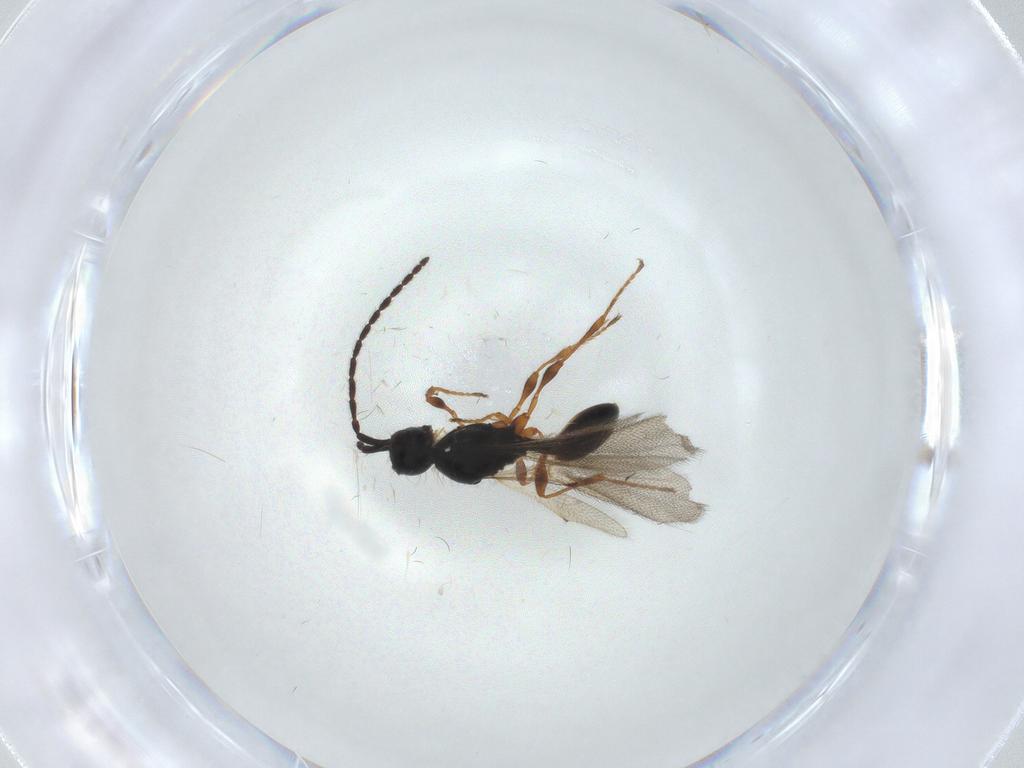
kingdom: Animalia
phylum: Arthropoda
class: Insecta
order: Hymenoptera
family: Diapriidae
